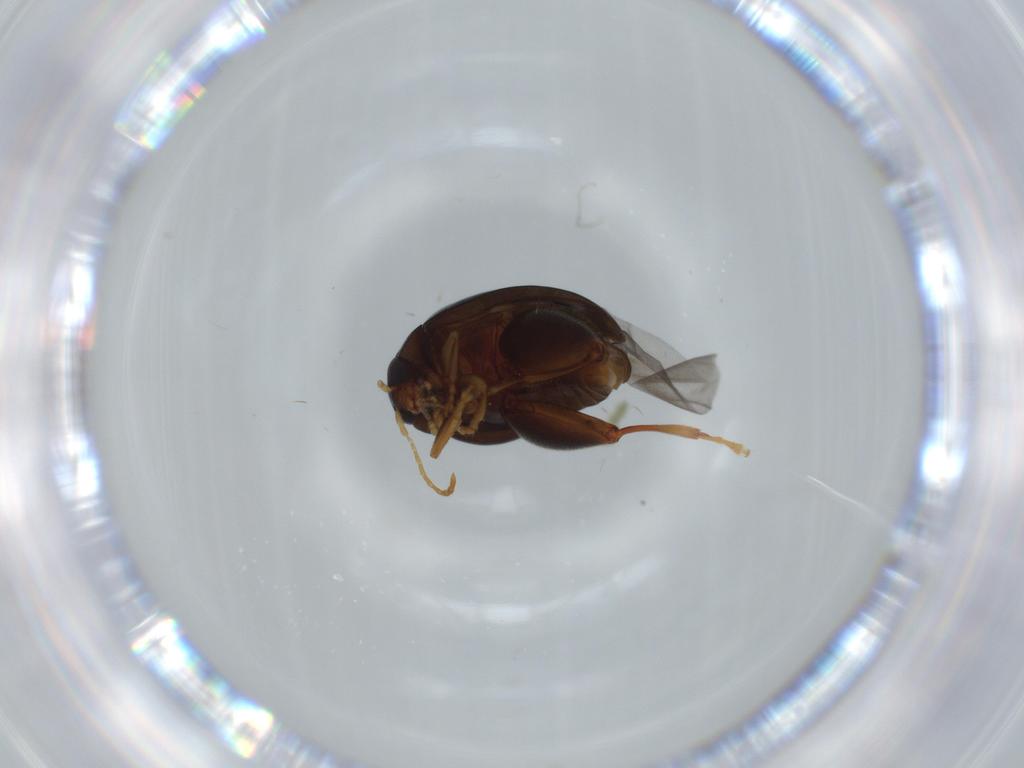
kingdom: Animalia
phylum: Arthropoda
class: Insecta
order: Coleoptera
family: Chrysomelidae
